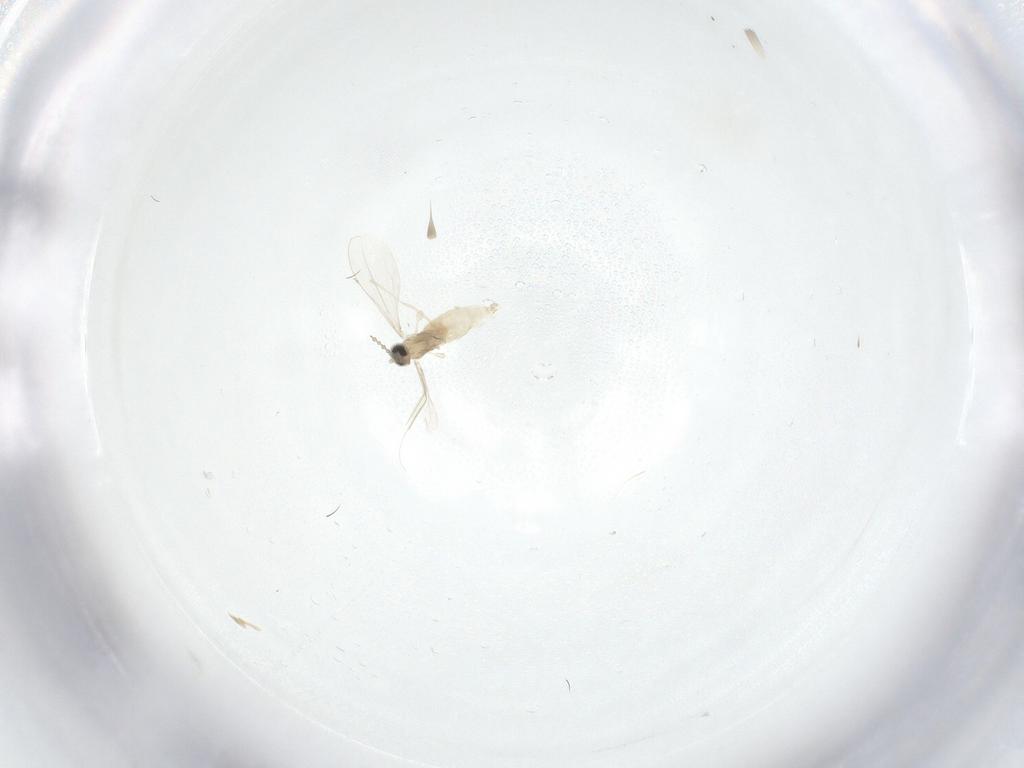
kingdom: Animalia
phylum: Arthropoda
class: Insecta
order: Diptera
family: Cecidomyiidae
